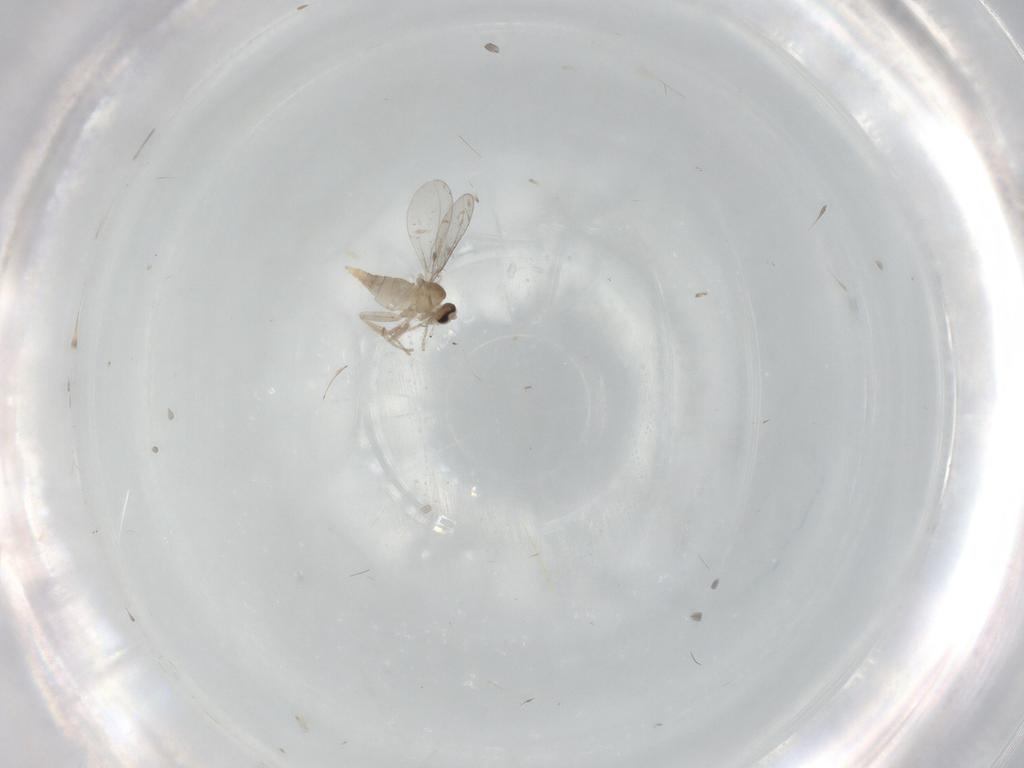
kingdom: Animalia
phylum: Arthropoda
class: Insecta
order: Diptera
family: Cecidomyiidae
